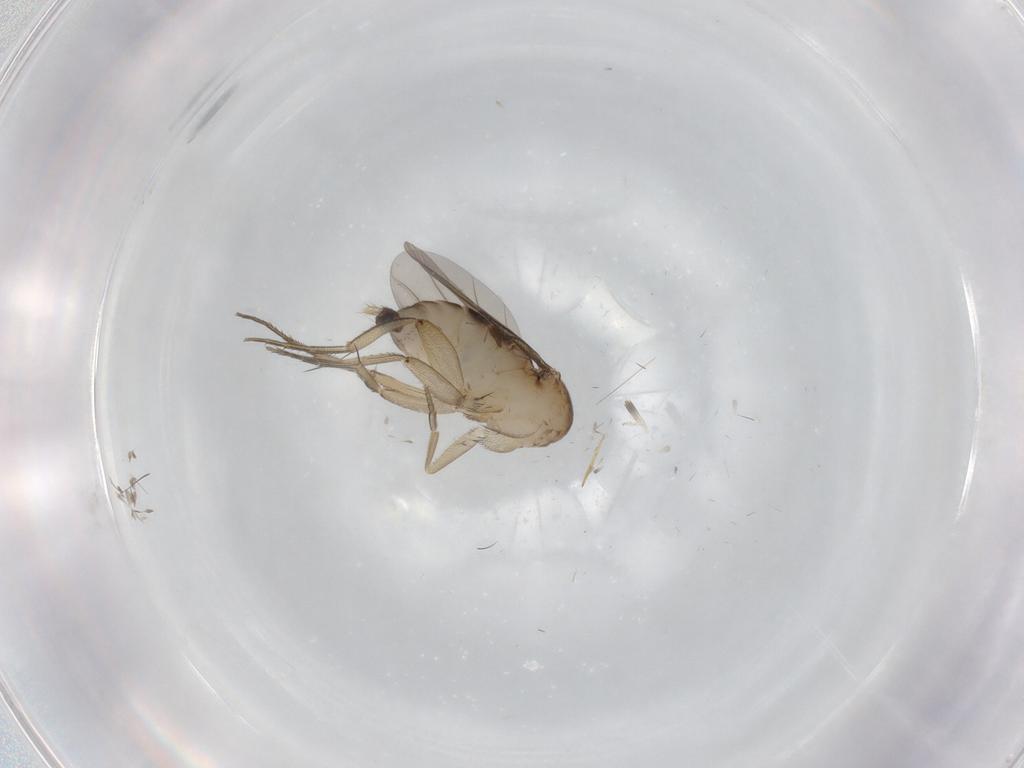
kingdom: Animalia
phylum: Arthropoda
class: Insecta
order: Diptera
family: Phoridae
